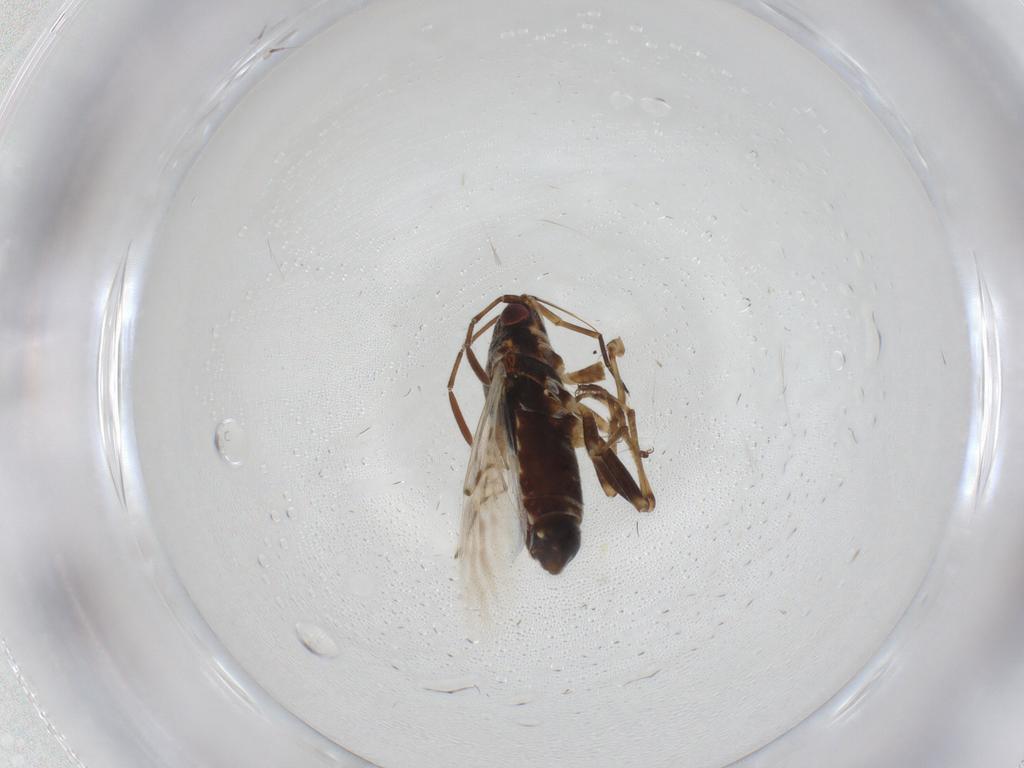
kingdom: Animalia
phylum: Arthropoda
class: Insecta
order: Hemiptera
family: Lygaeidae
